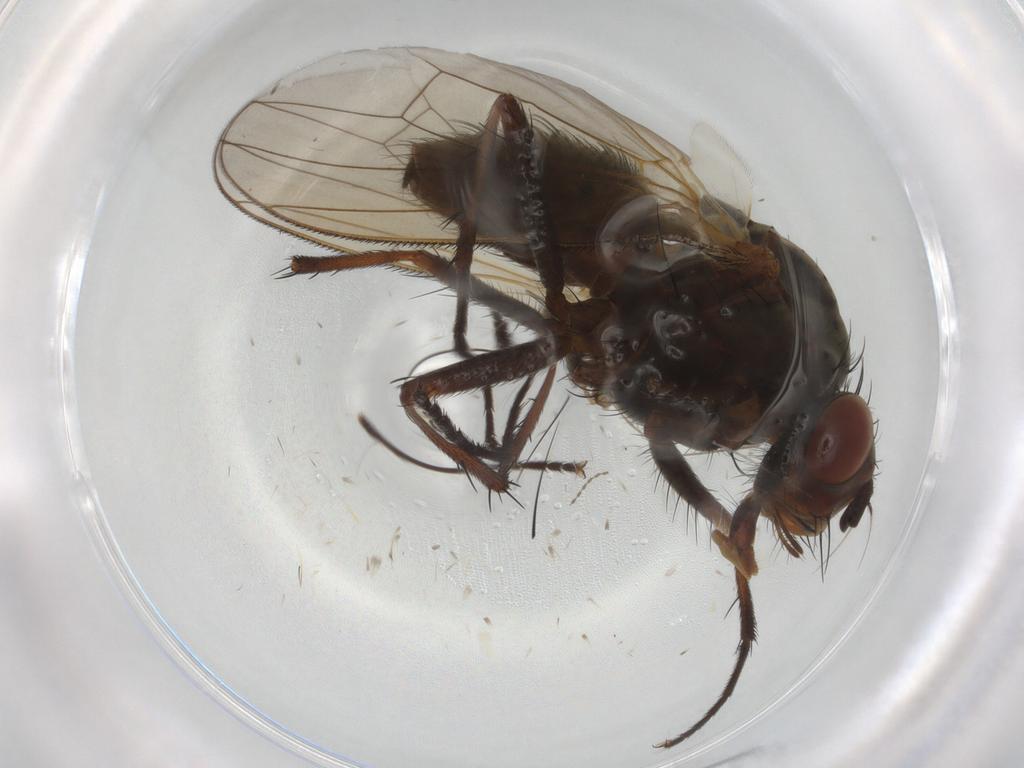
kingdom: Animalia
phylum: Arthropoda
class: Insecta
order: Diptera
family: Anthomyiidae
